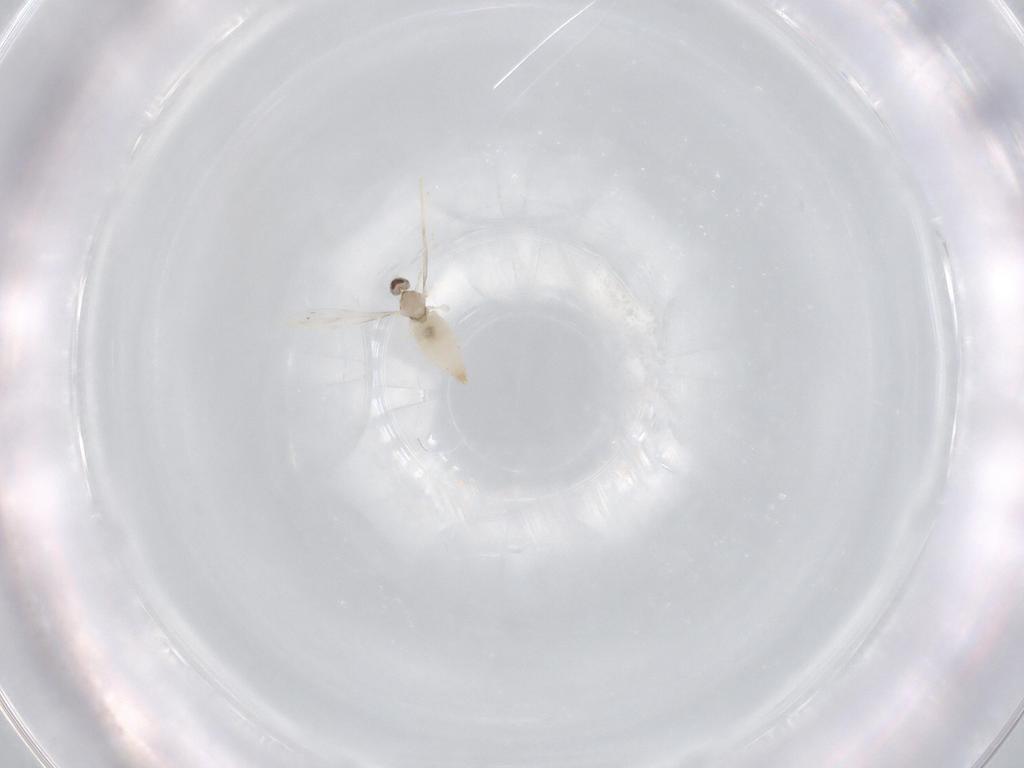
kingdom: Animalia
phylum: Arthropoda
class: Insecta
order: Diptera
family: Cecidomyiidae
